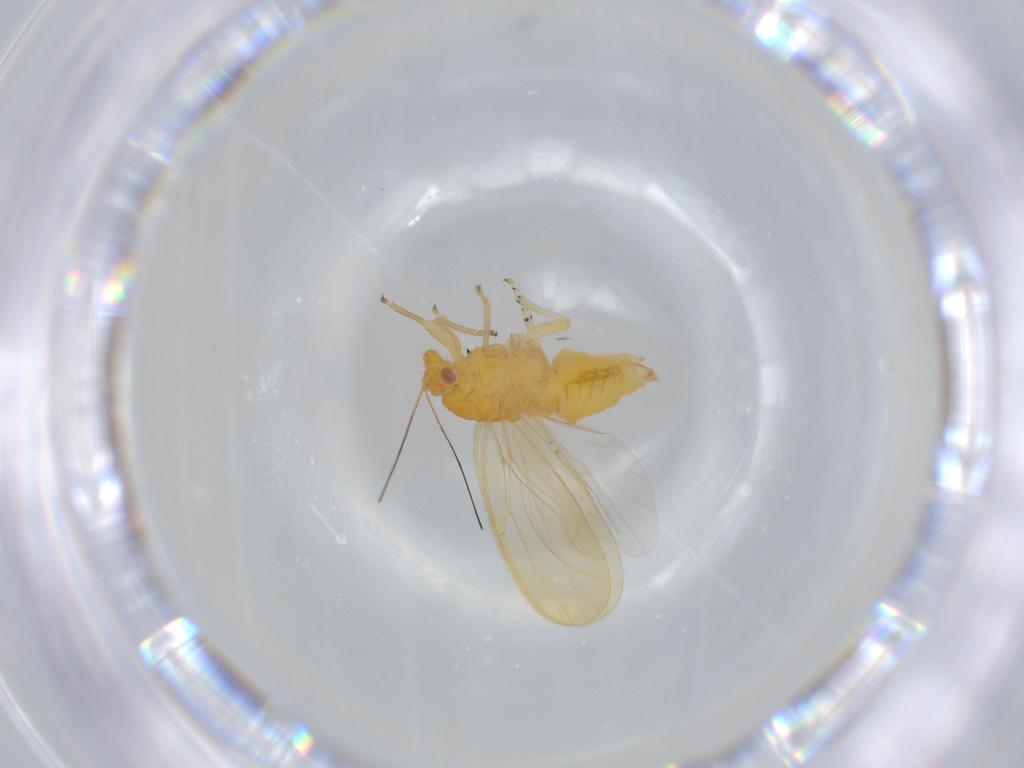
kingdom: Animalia
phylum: Arthropoda
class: Insecta
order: Hemiptera
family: Psyllidae
